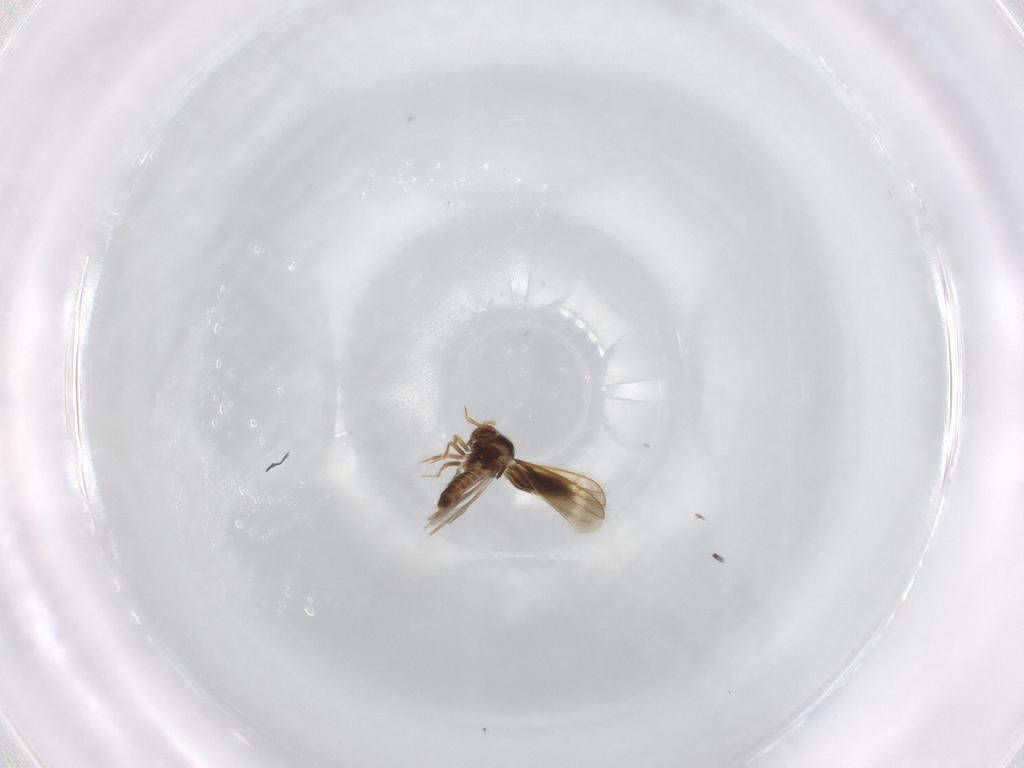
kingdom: Animalia
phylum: Arthropoda
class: Insecta
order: Hemiptera
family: Schizopteridae
